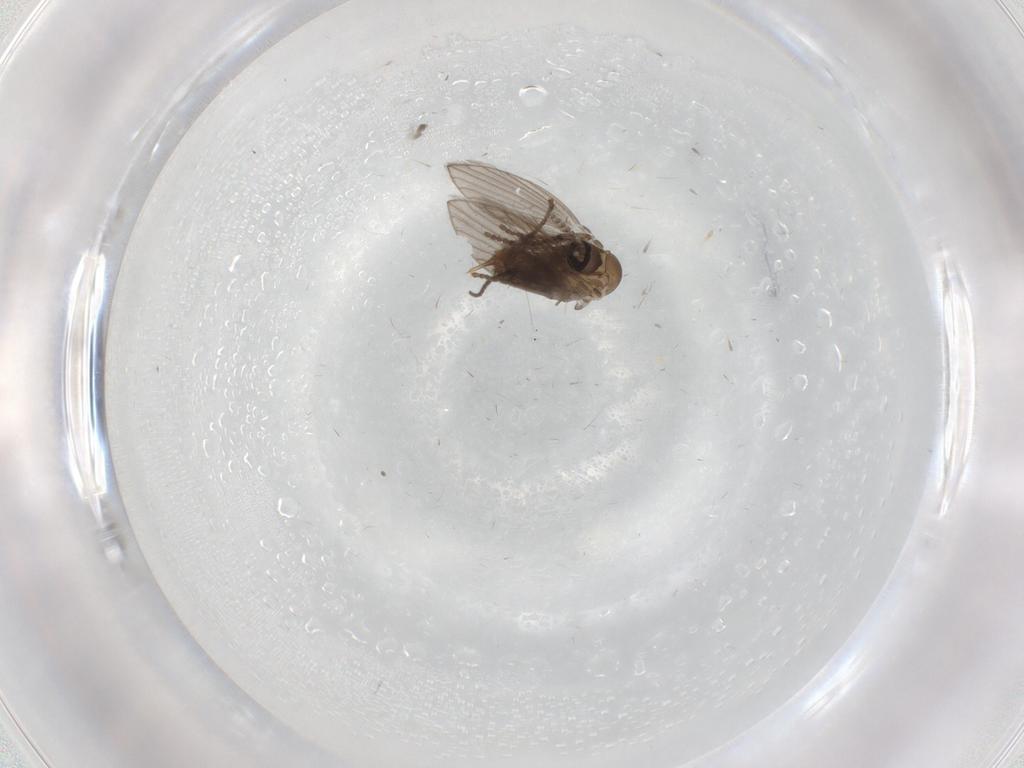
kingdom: Animalia
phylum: Arthropoda
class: Insecta
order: Diptera
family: Psychodidae
